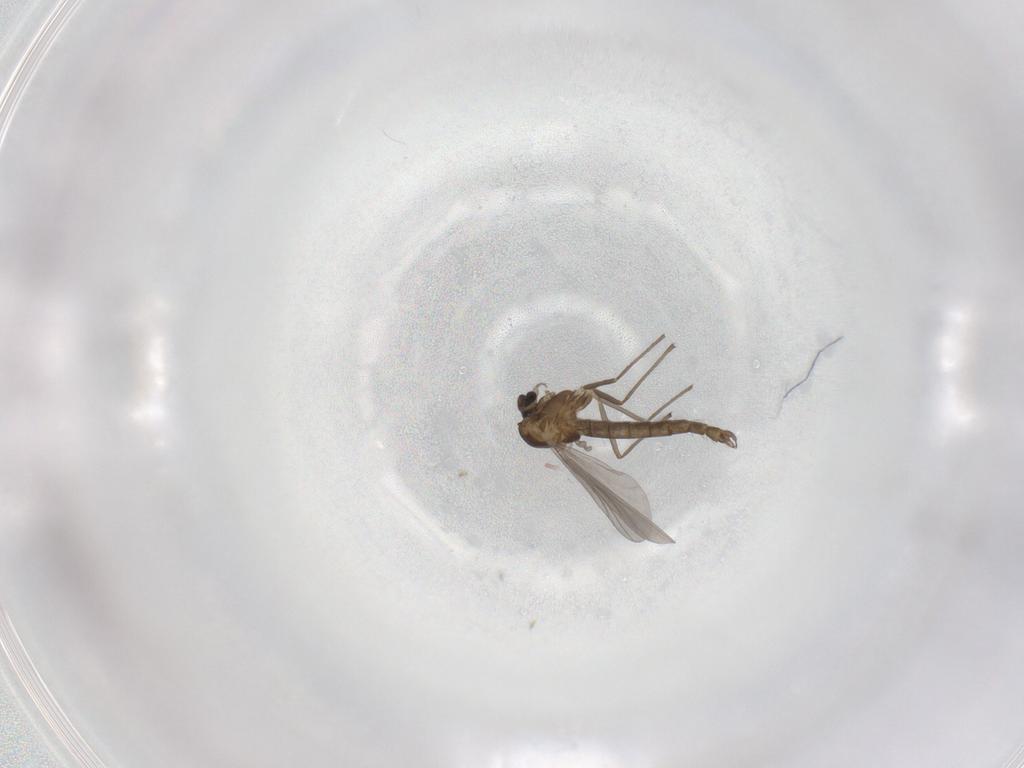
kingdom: Animalia
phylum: Arthropoda
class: Insecta
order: Diptera
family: Chironomidae
